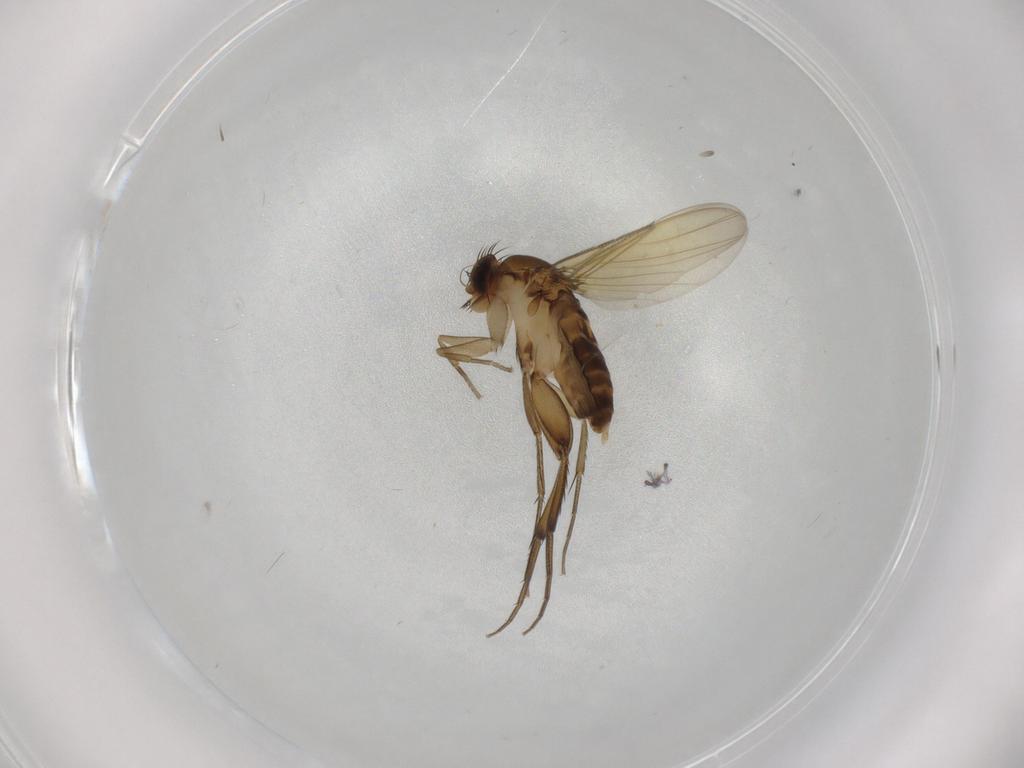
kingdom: Animalia
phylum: Arthropoda
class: Insecta
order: Diptera
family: Phoridae
